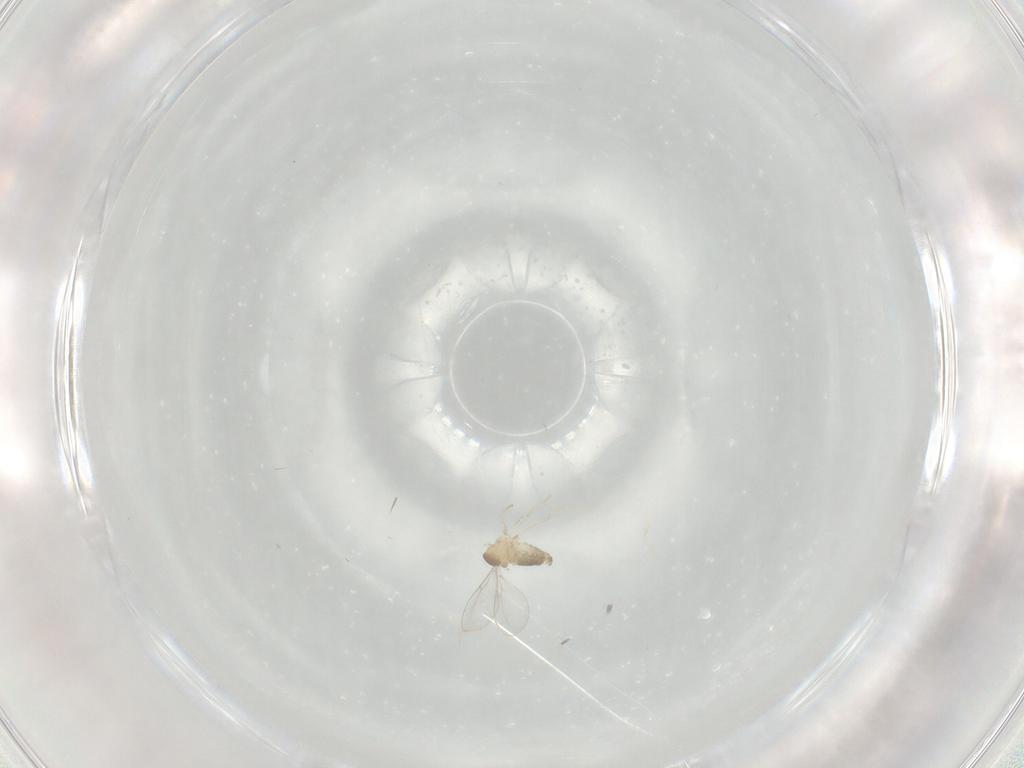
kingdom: Animalia
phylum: Arthropoda
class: Insecta
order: Diptera
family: Cecidomyiidae
